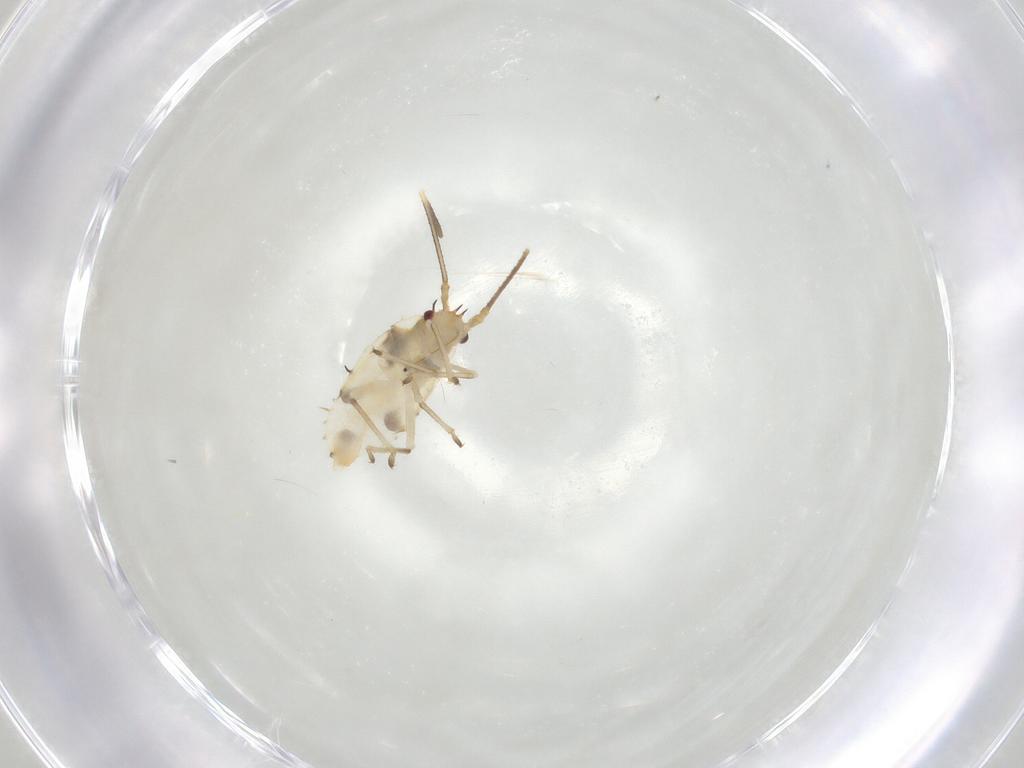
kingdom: Animalia
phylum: Arthropoda
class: Insecta
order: Hemiptera
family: Tingidae
